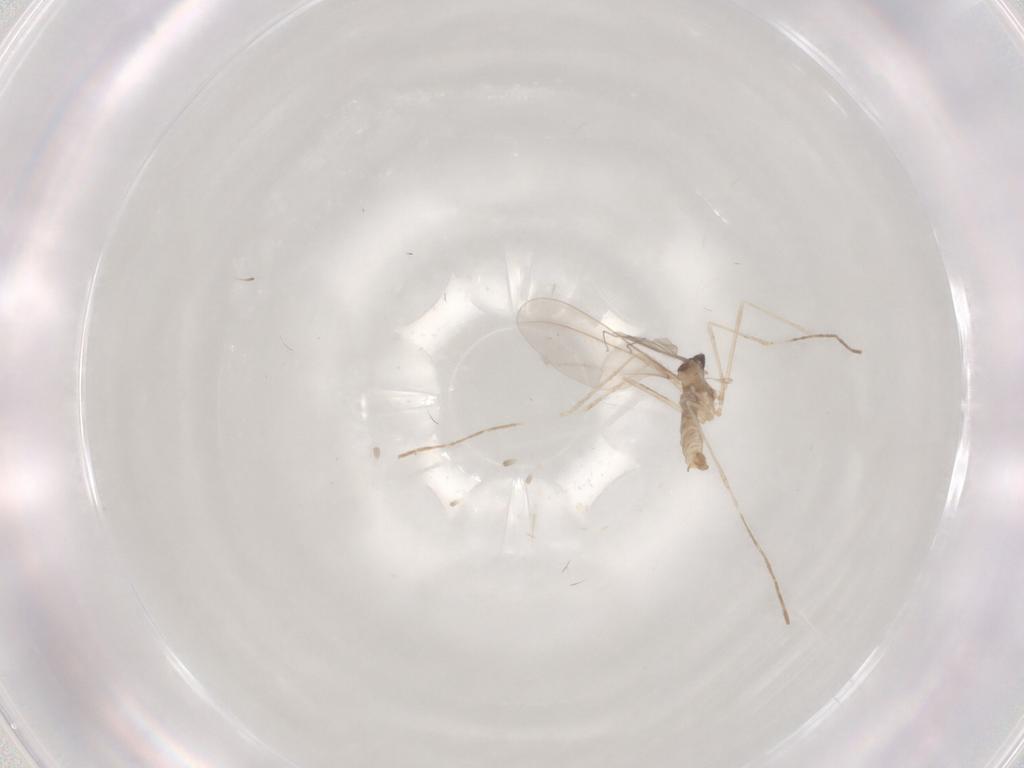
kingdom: Animalia
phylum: Arthropoda
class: Insecta
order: Diptera
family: Cecidomyiidae
